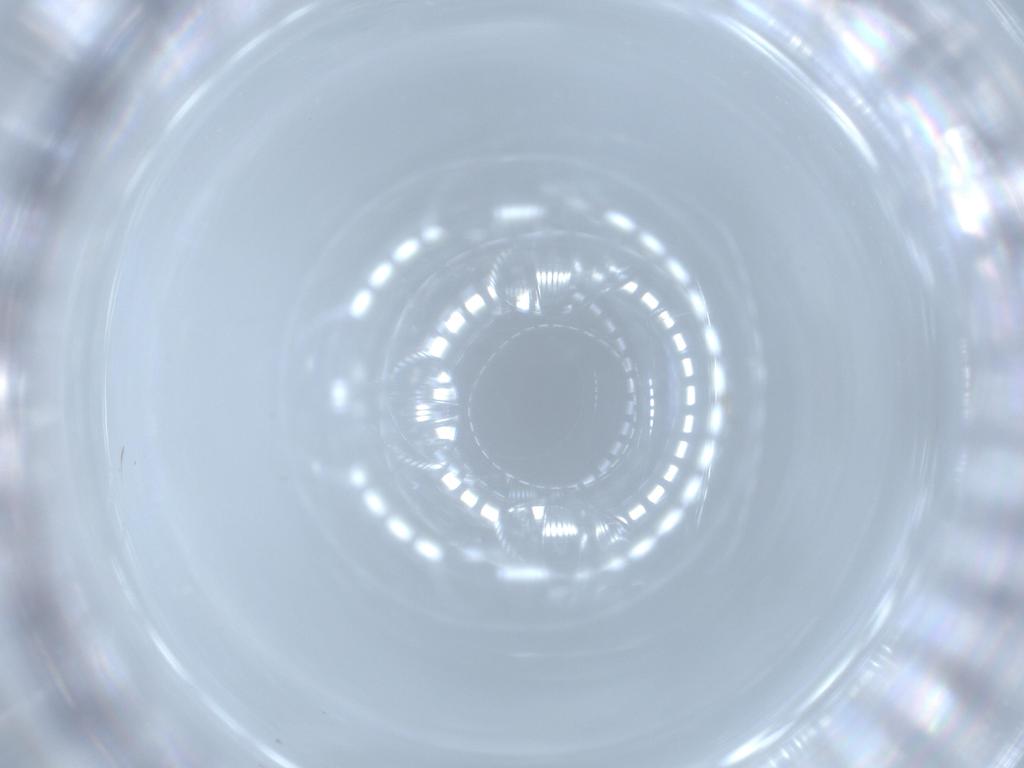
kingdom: Animalia
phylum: Arthropoda
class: Insecta
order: Diptera
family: Cecidomyiidae
